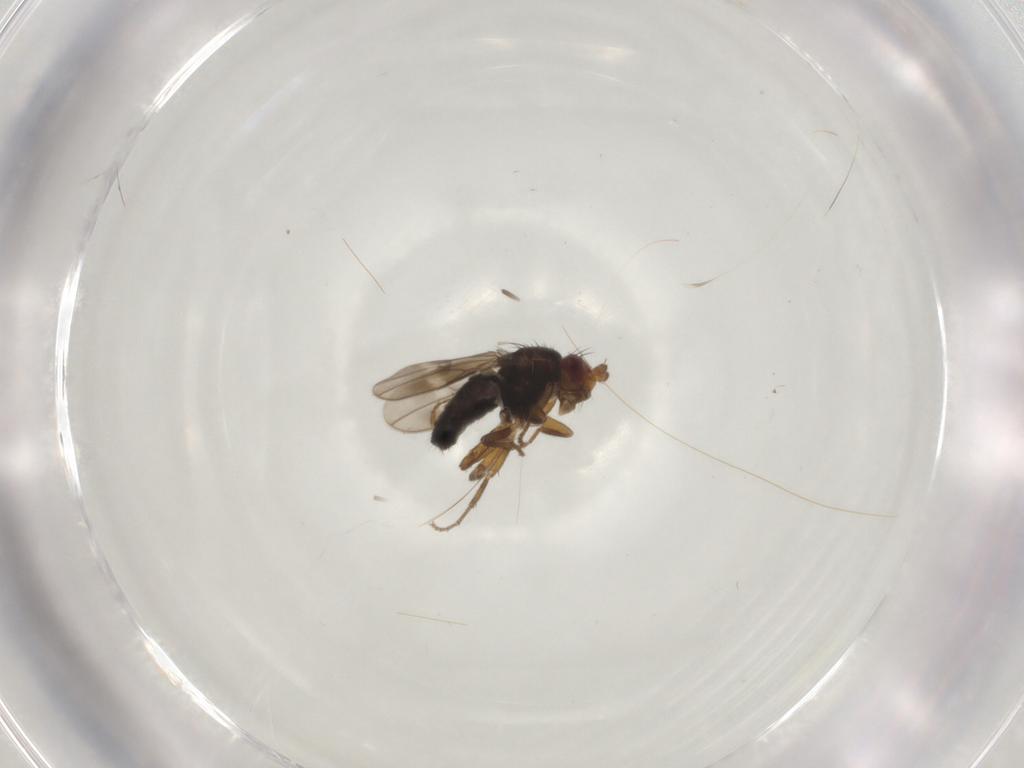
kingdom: Animalia
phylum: Arthropoda
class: Insecta
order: Diptera
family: Sphaeroceridae
